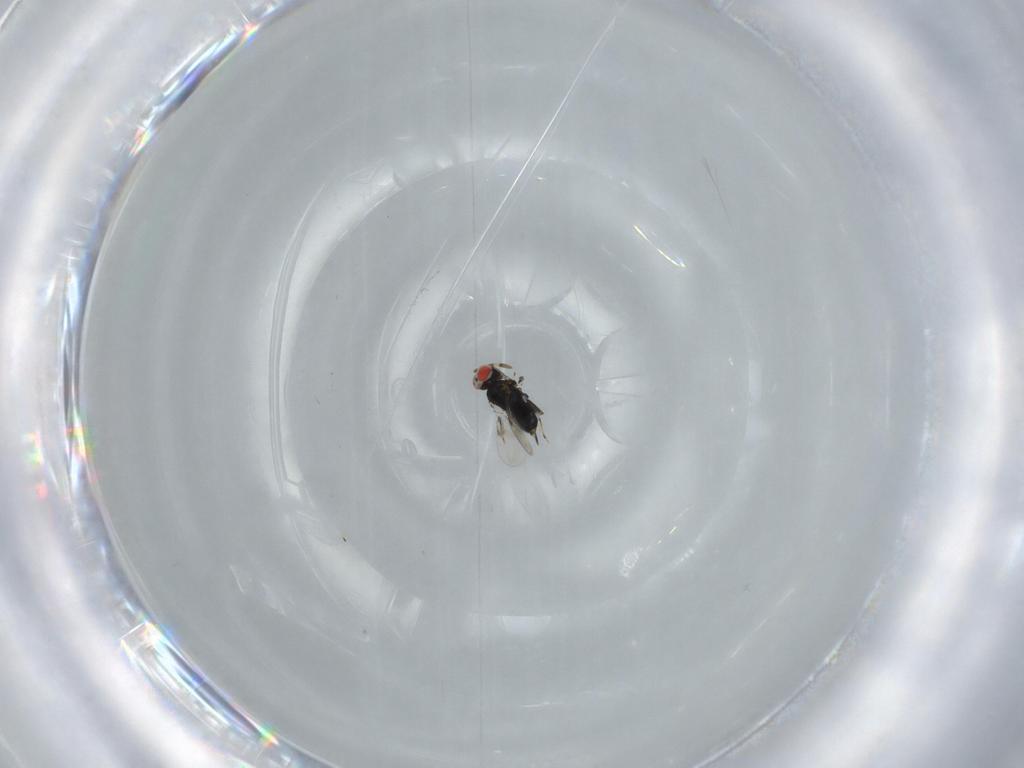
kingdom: Animalia
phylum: Arthropoda
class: Insecta
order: Hymenoptera
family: Azotidae
